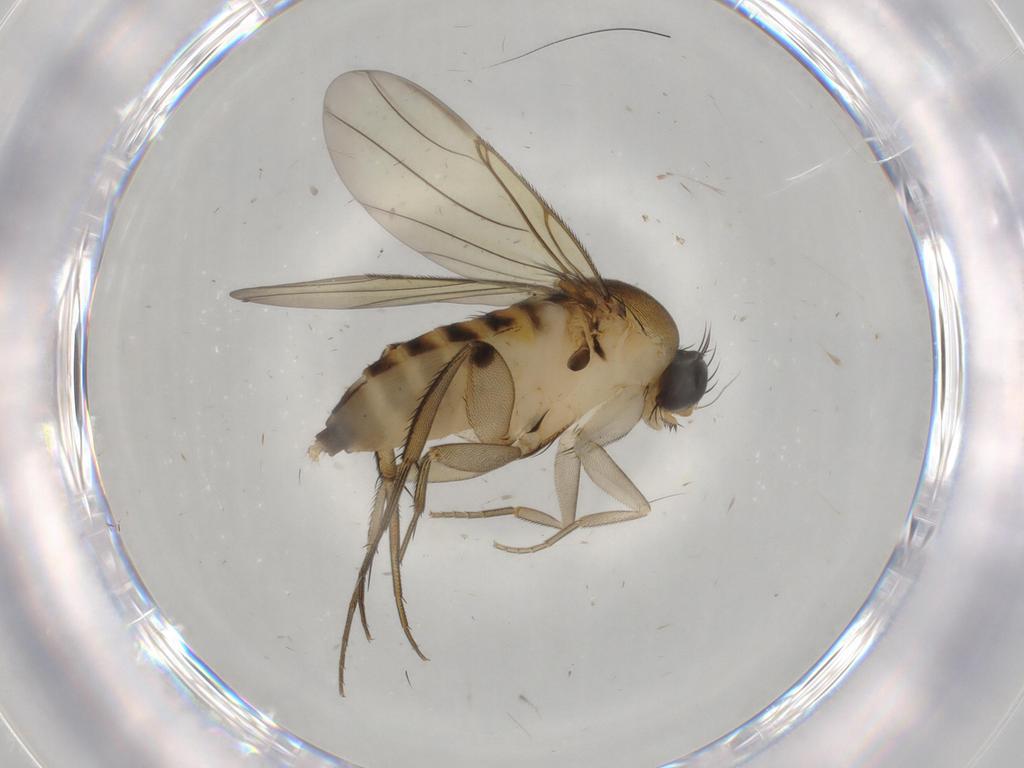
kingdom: Animalia
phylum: Arthropoda
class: Insecta
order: Diptera
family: Phoridae
